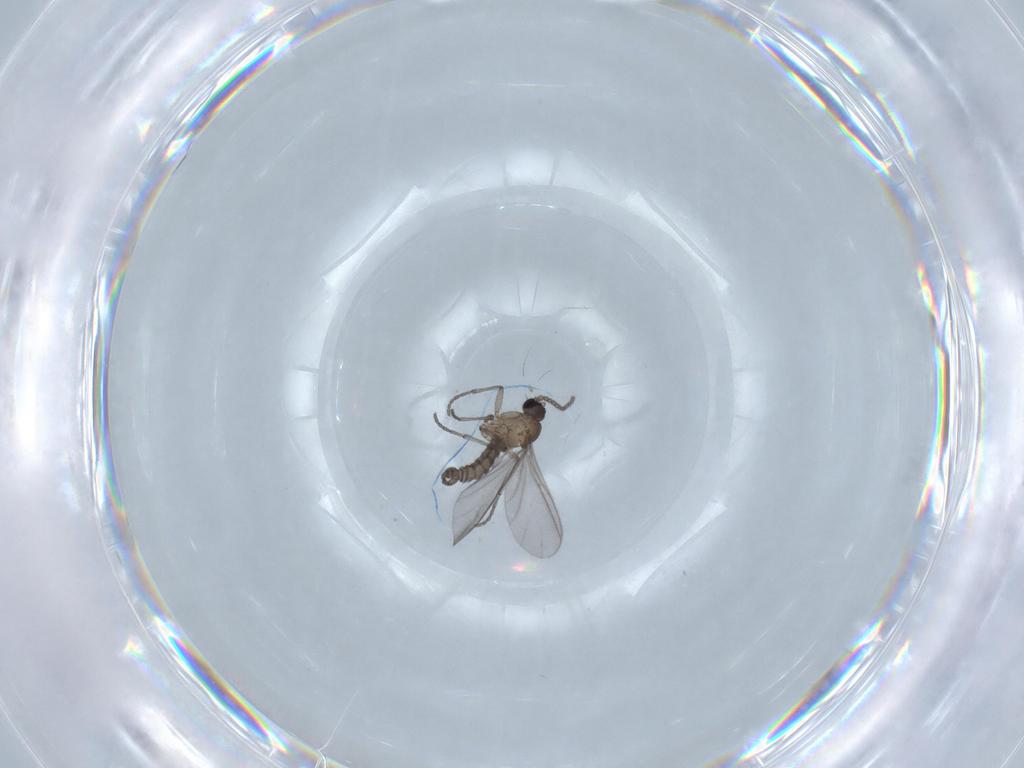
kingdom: Animalia
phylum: Arthropoda
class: Insecta
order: Diptera
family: Sciaridae
